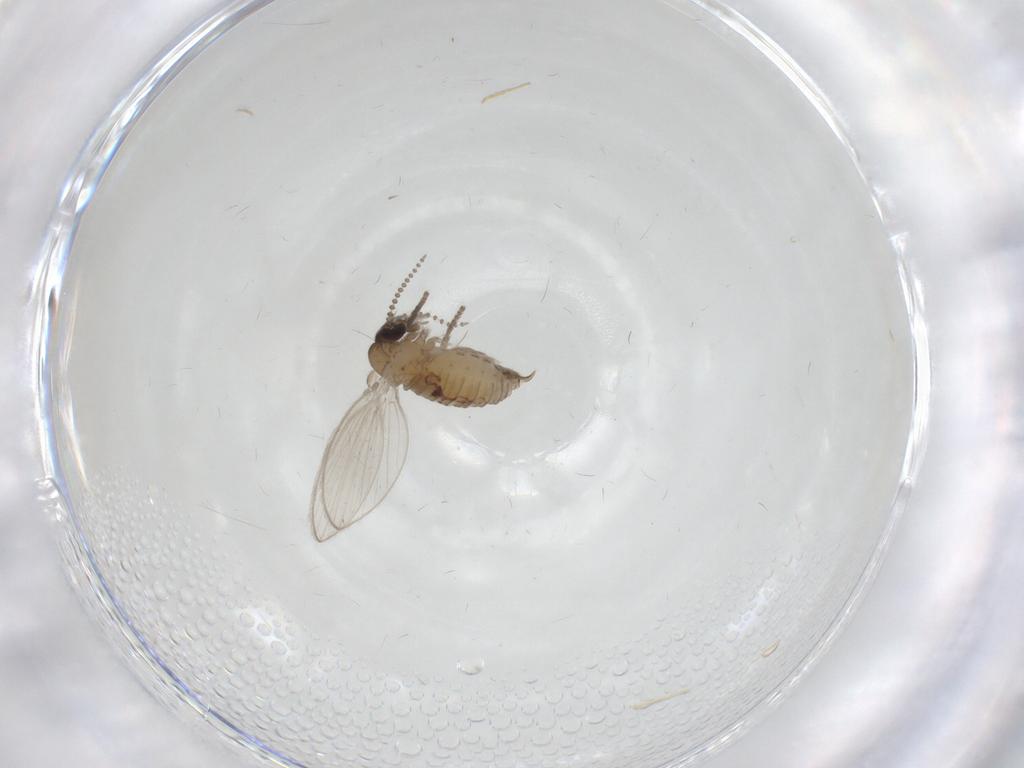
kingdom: Animalia
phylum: Arthropoda
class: Insecta
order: Diptera
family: Psychodidae
